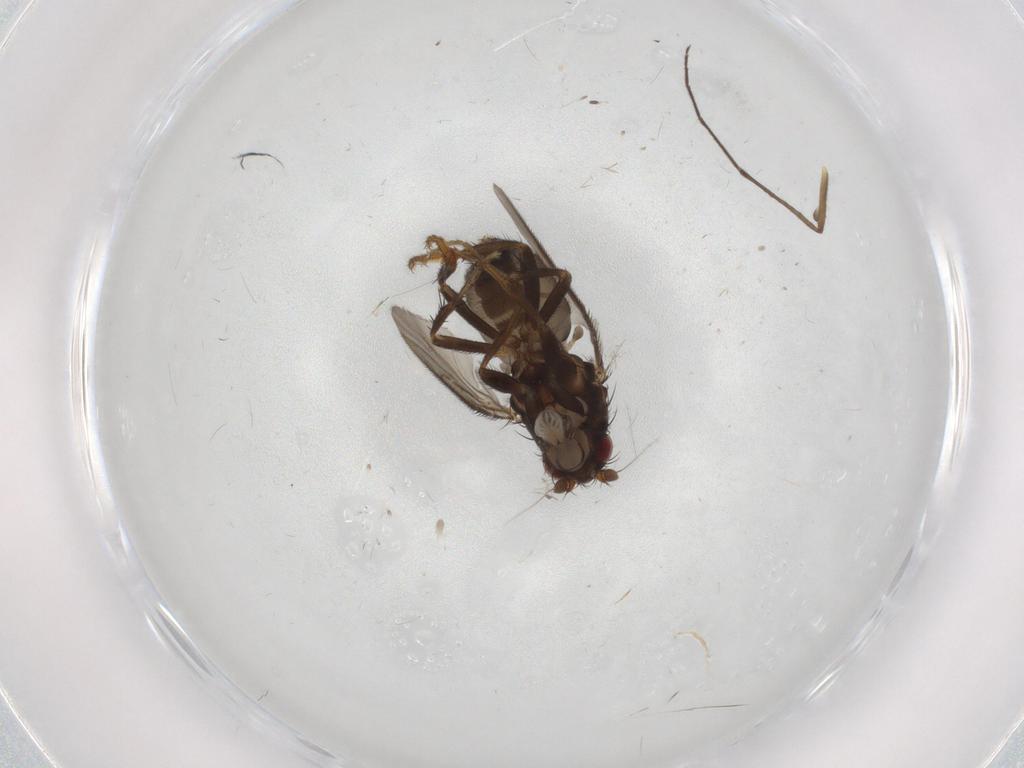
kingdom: Animalia
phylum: Arthropoda
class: Insecta
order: Diptera
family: Sphaeroceridae
